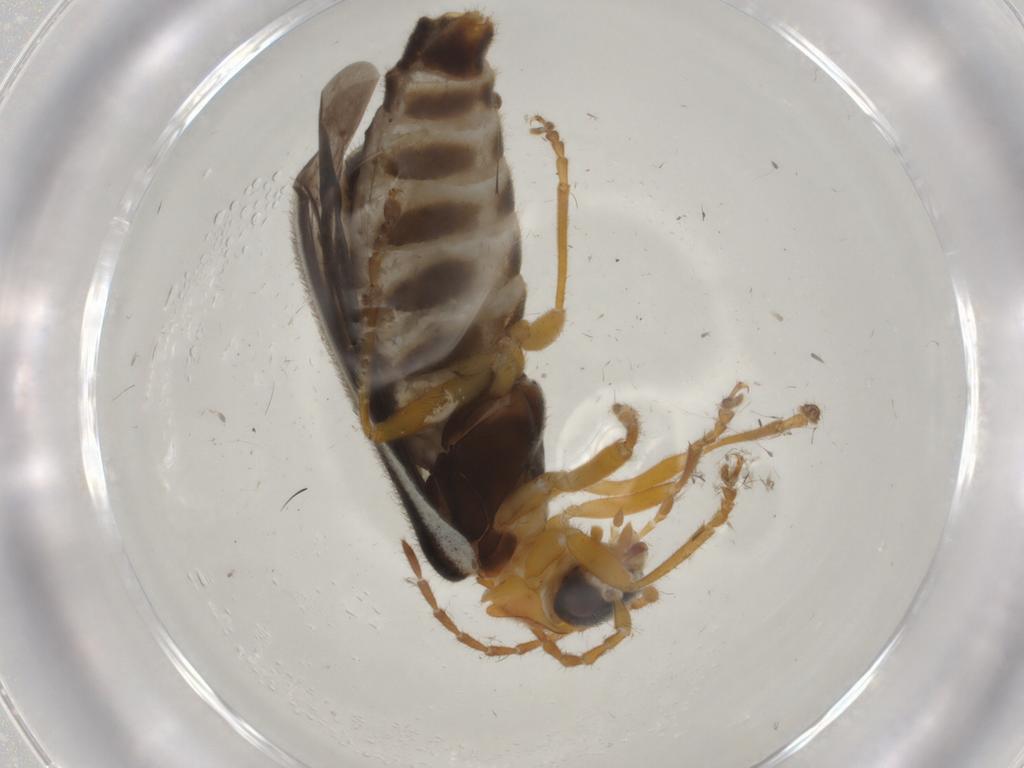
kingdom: Animalia
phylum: Arthropoda
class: Insecta
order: Coleoptera
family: Cantharidae
